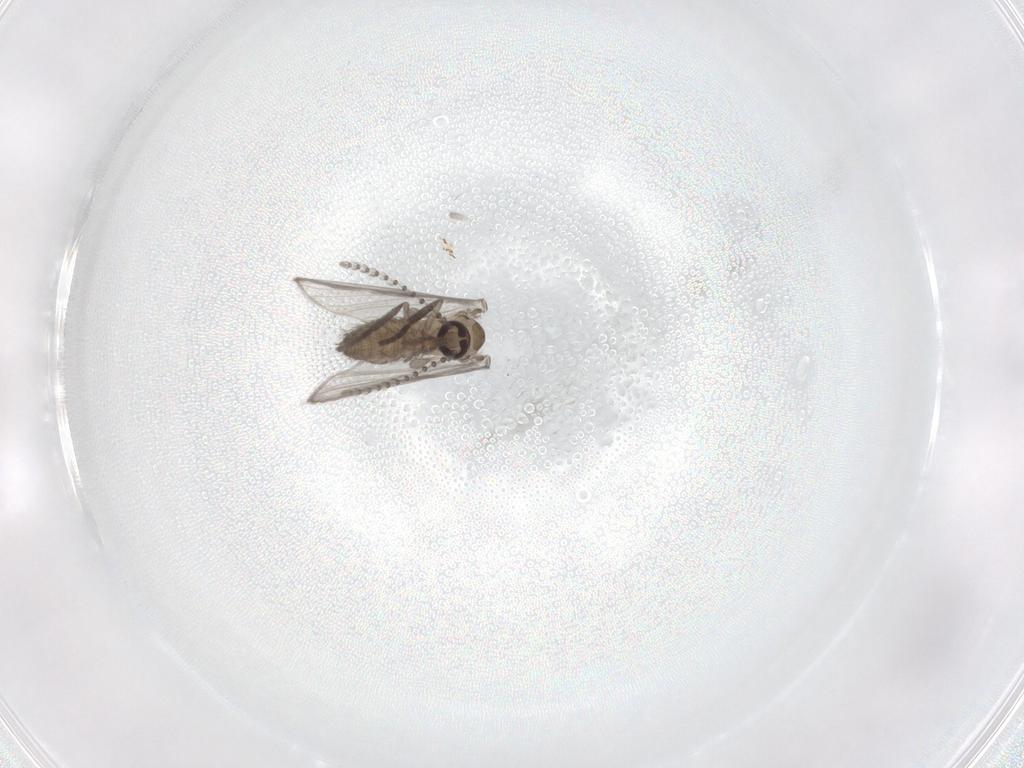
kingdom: Animalia
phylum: Arthropoda
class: Insecta
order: Diptera
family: Psychodidae
